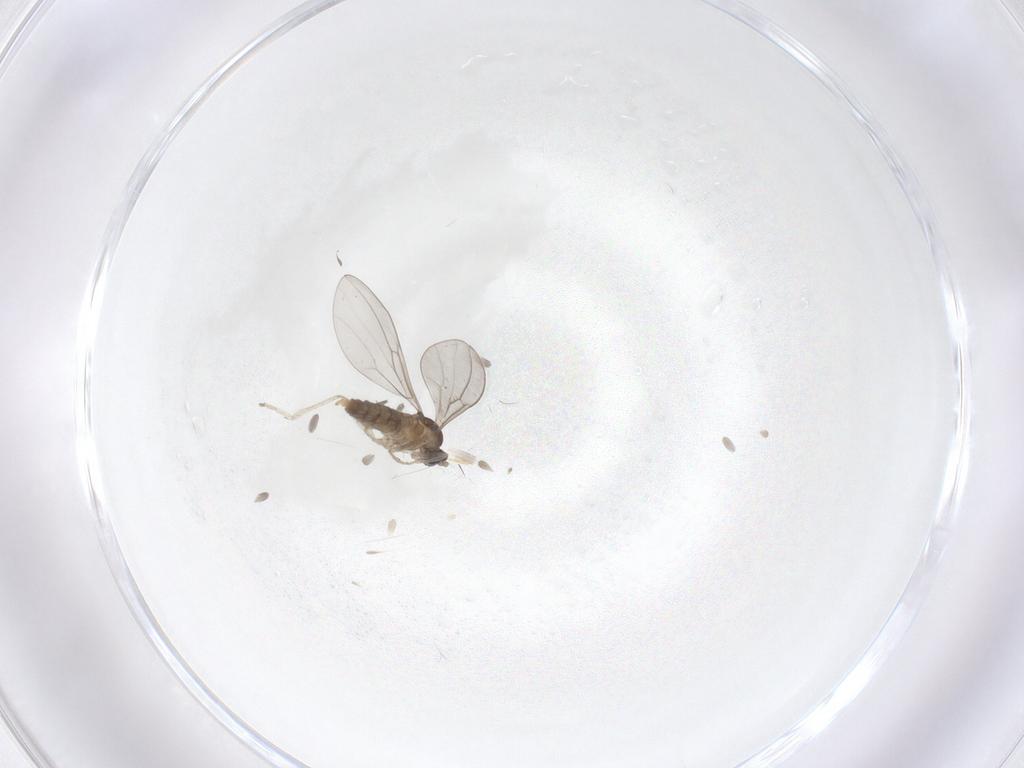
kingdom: Animalia
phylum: Arthropoda
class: Insecta
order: Diptera
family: Cecidomyiidae
